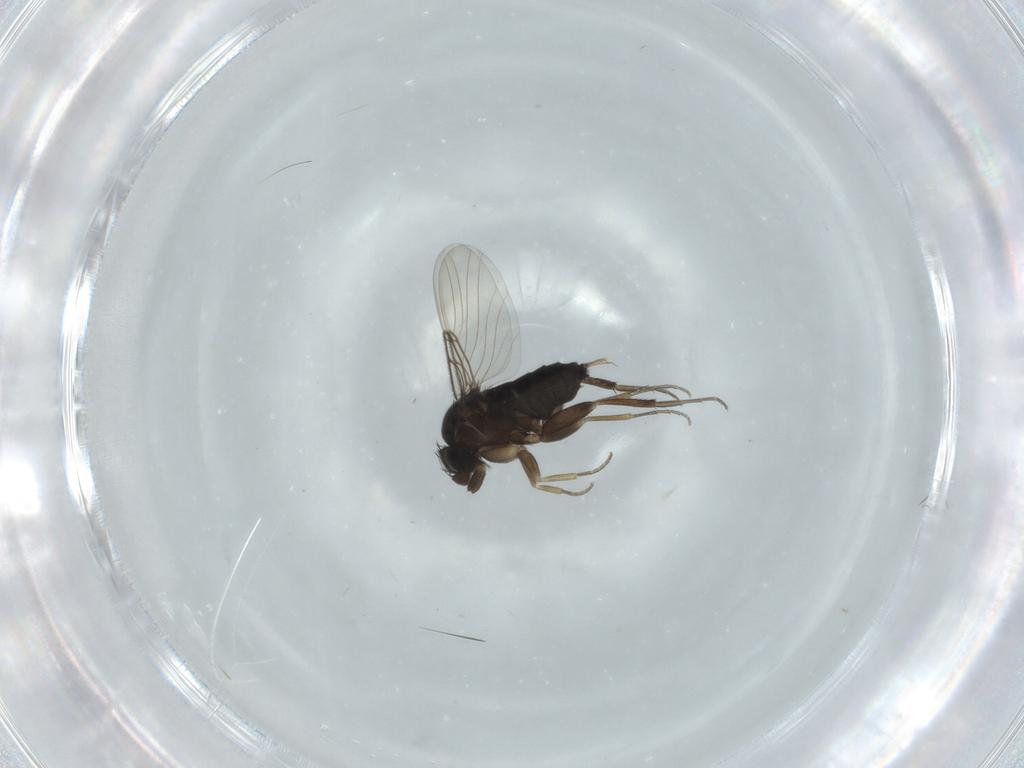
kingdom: Animalia
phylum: Arthropoda
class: Insecta
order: Diptera
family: Phoridae
